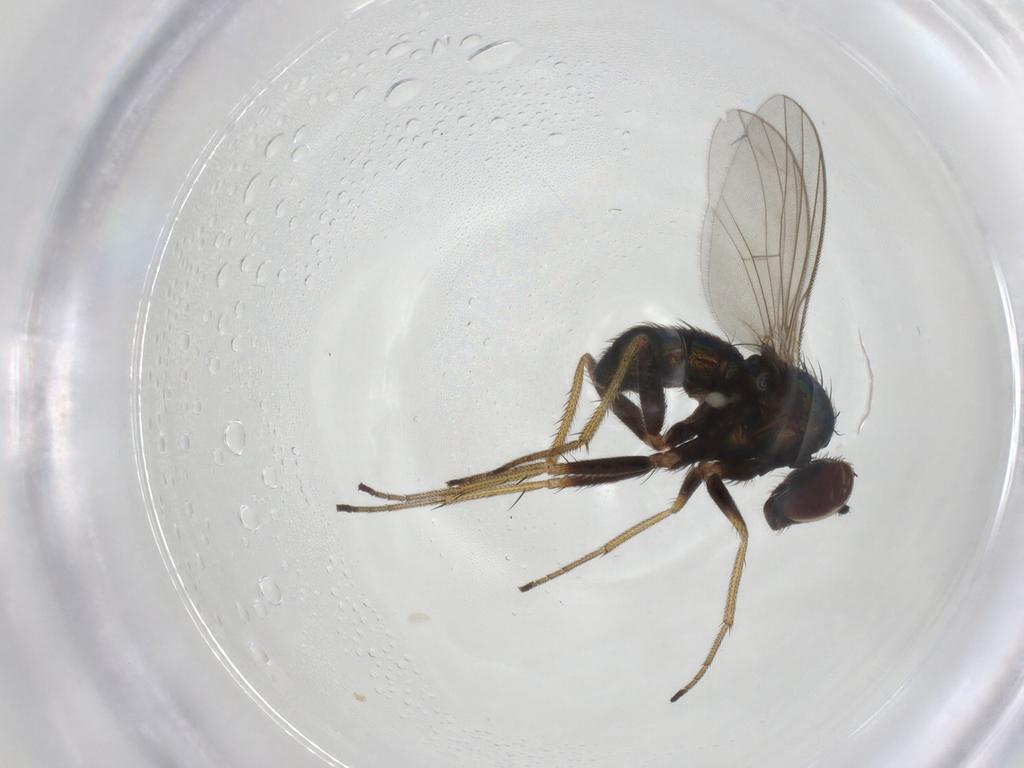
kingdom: Animalia
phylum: Arthropoda
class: Insecta
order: Diptera
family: Dolichopodidae
